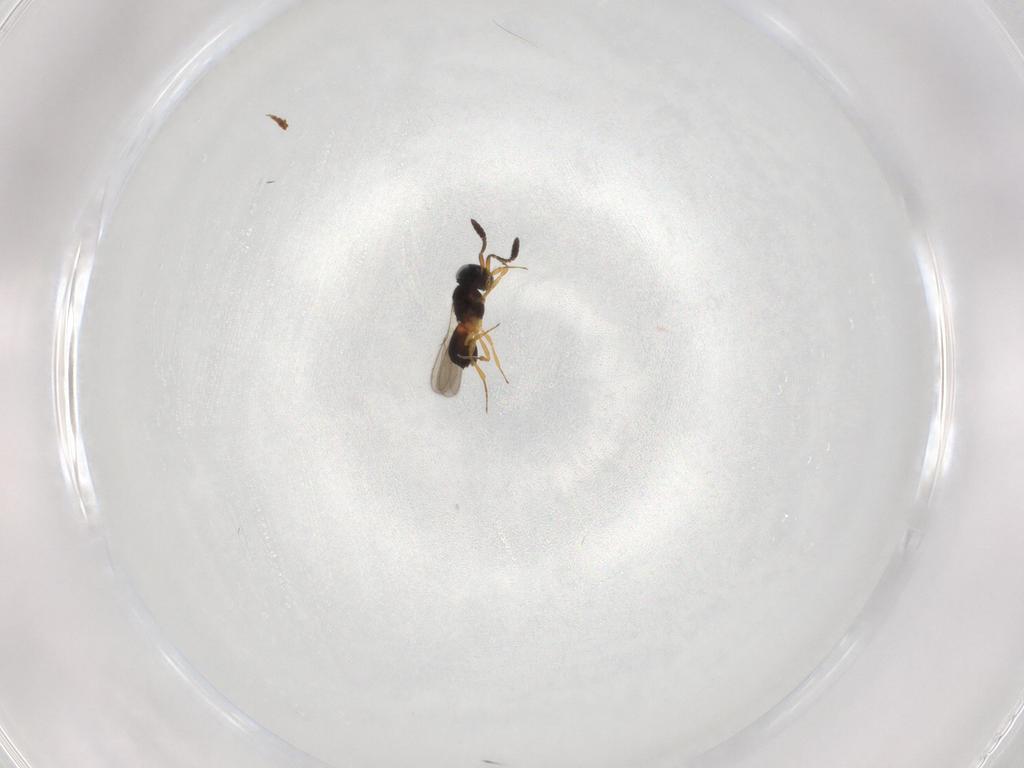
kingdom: Animalia
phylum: Arthropoda
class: Insecta
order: Hymenoptera
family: Scelionidae
